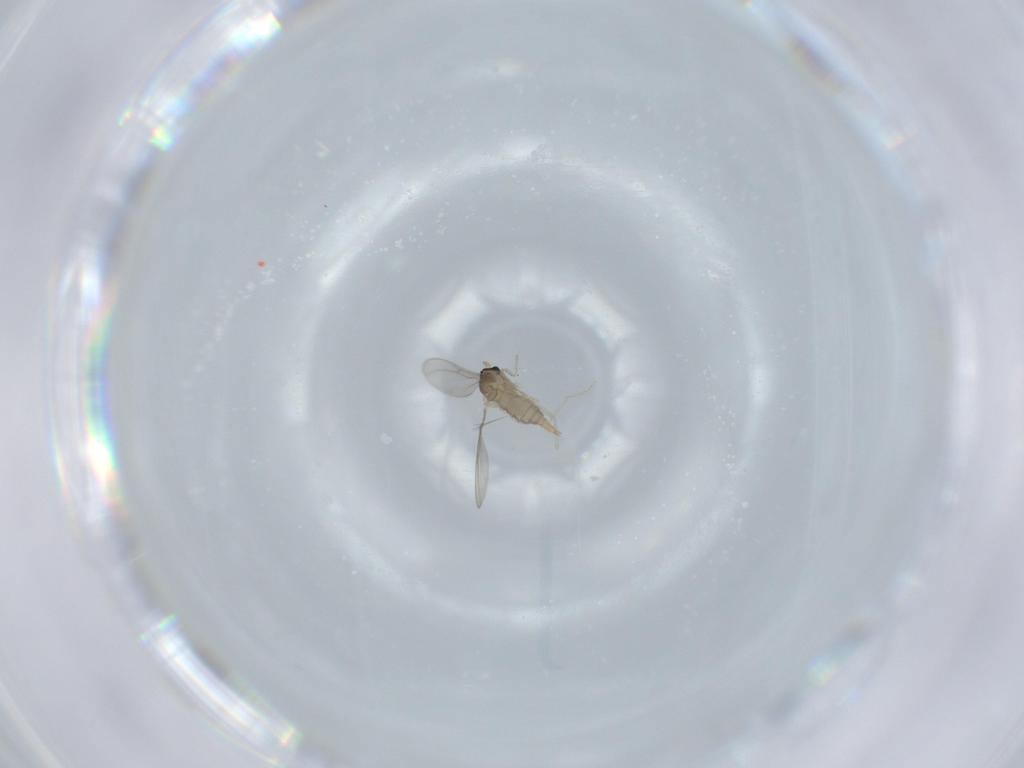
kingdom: Animalia
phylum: Arthropoda
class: Insecta
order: Diptera
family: Cecidomyiidae
